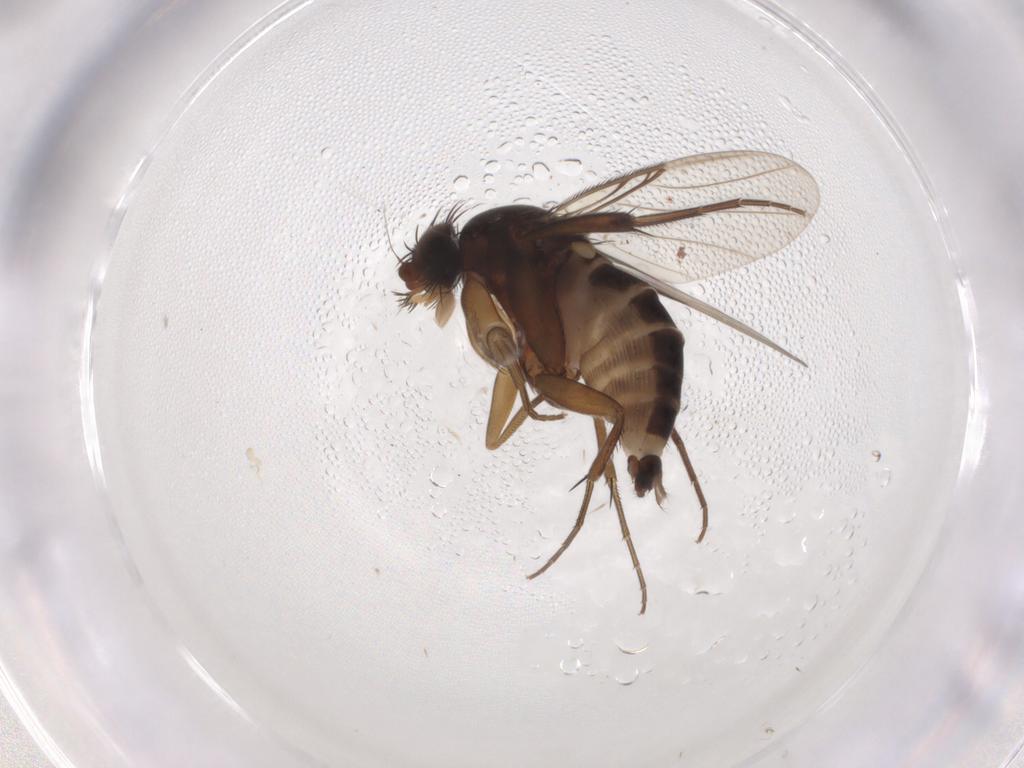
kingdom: Animalia
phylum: Arthropoda
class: Insecta
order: Diptera
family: Phoridae
